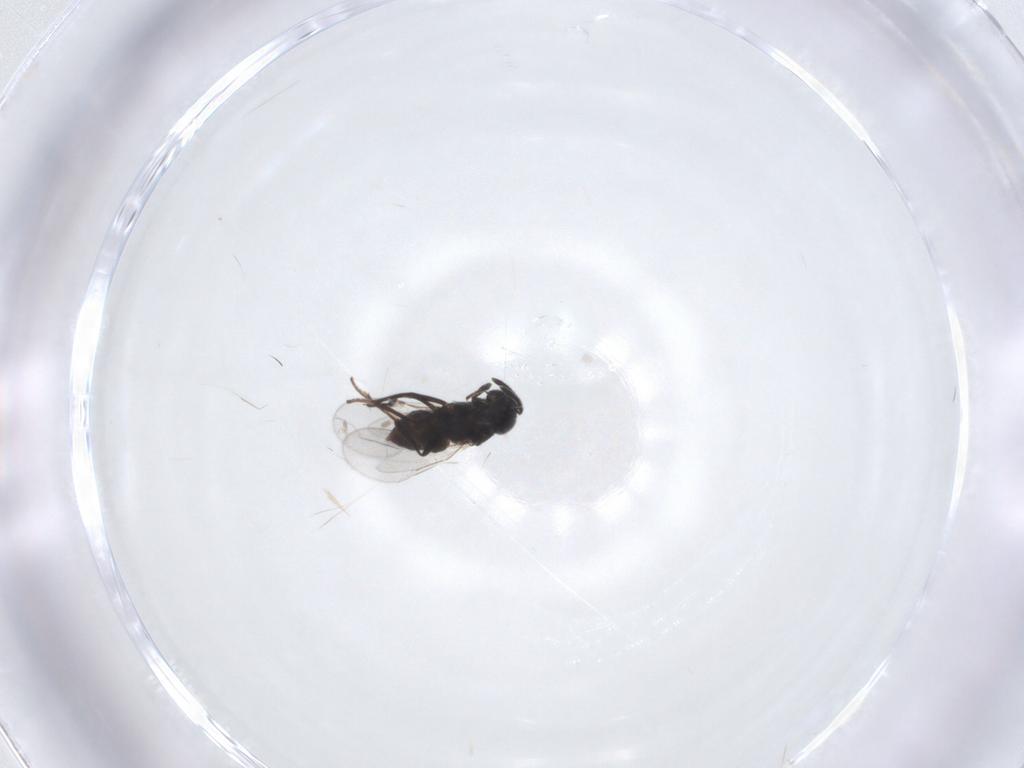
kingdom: Animalia
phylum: Arthropoda
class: Insecta
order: Hymenoptera
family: Encyrtidae
